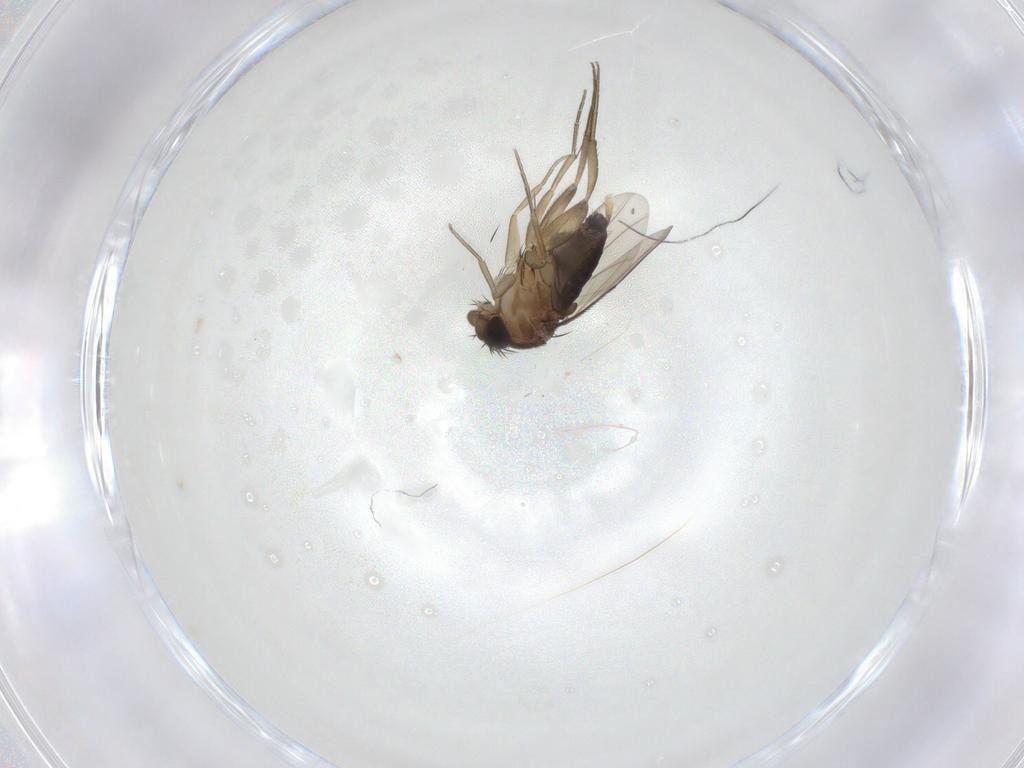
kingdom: Animalia
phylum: Arthropoda
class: Insecta
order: Diptera
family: Phoridae
